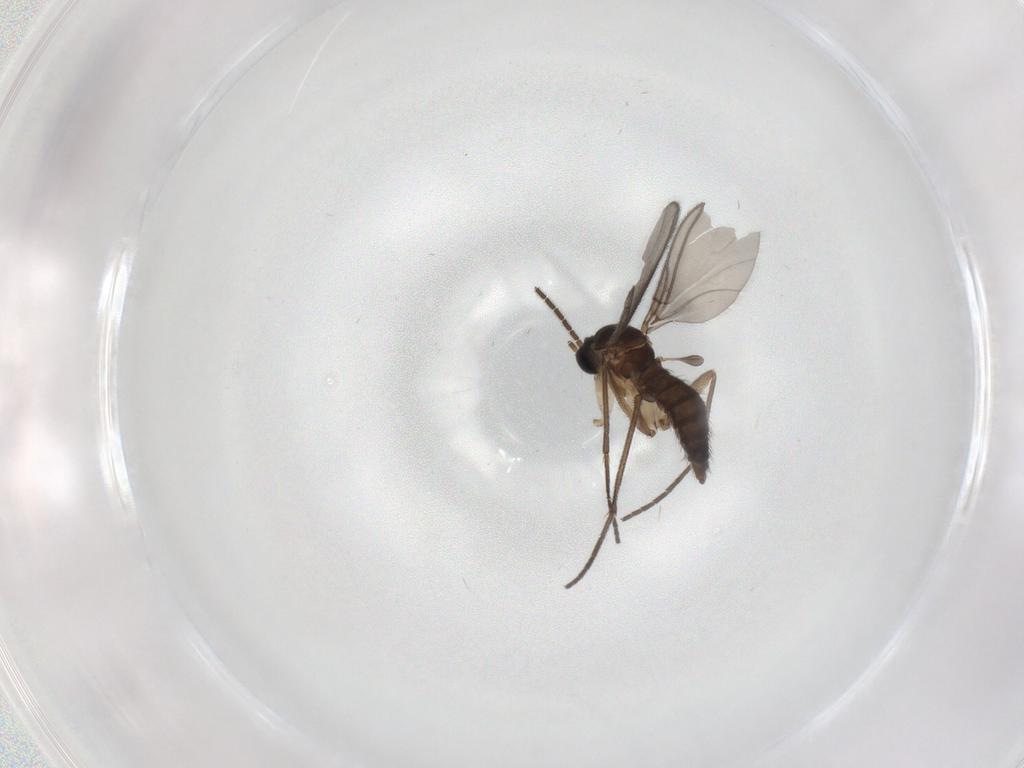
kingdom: Animalia
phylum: Arthropoda
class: Insecta
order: Diptera
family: Sciaridae
